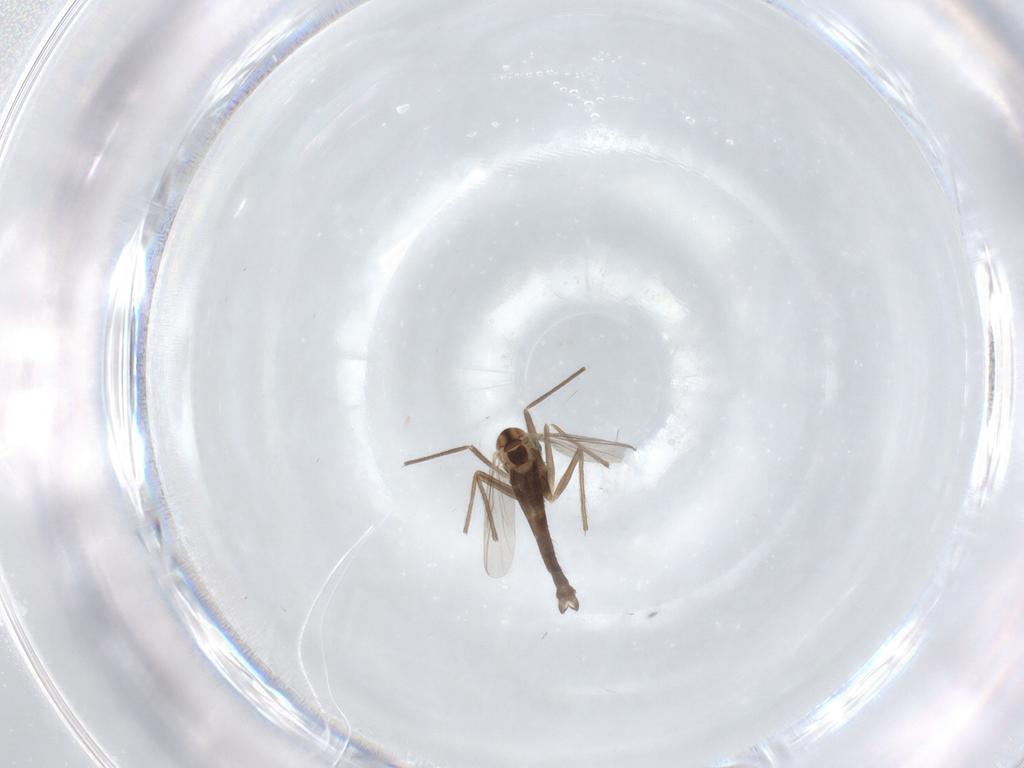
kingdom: Animalia
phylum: Arthropoda
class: Insecta
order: Diptera
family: Chironomidae
